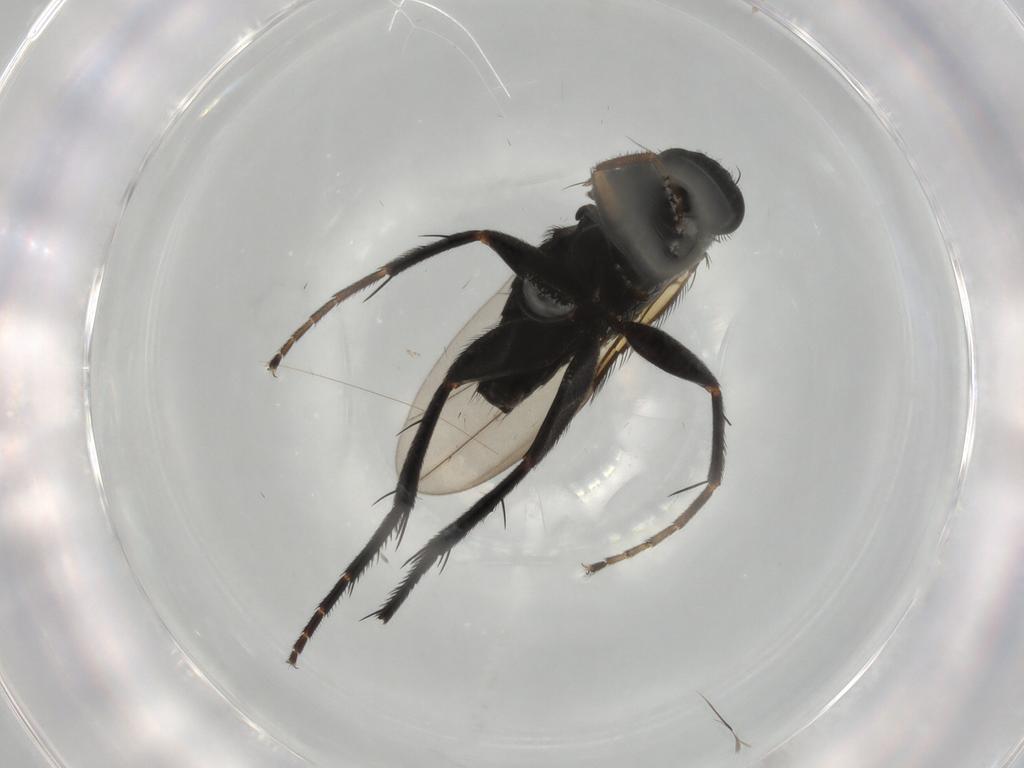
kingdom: Animalia
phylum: Arthropoda
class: Insecta
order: Diptera
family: Phoridae
